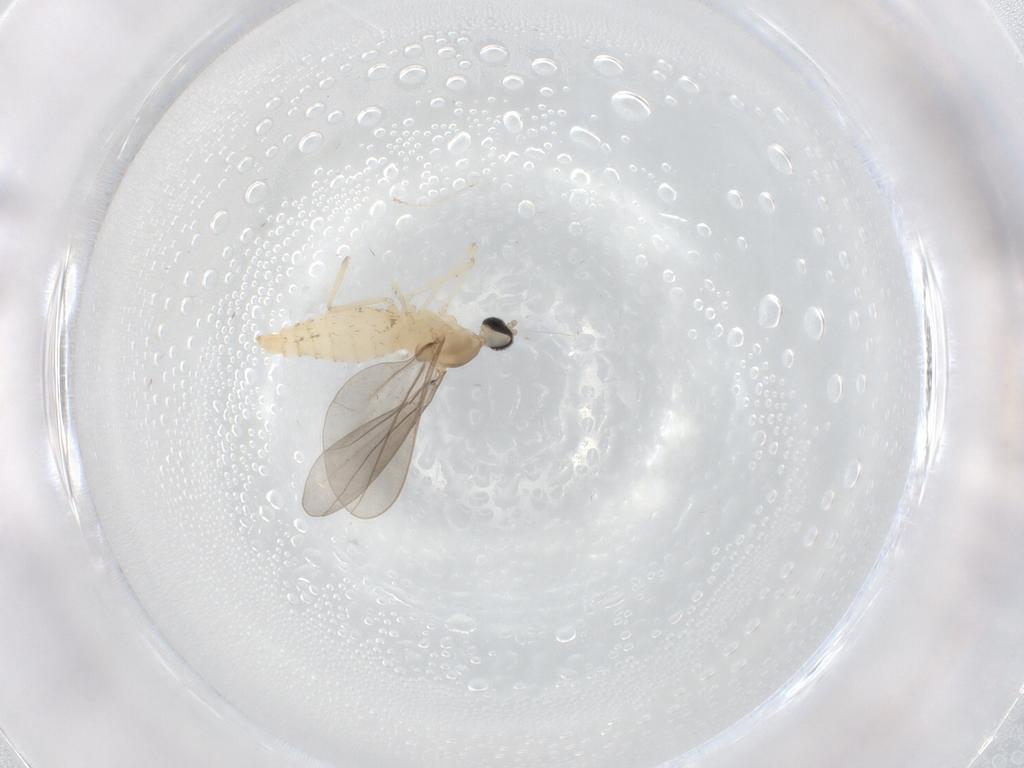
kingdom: Animalia
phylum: Arthropoda
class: Insecta
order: Diptera
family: Cecidomyiidae
